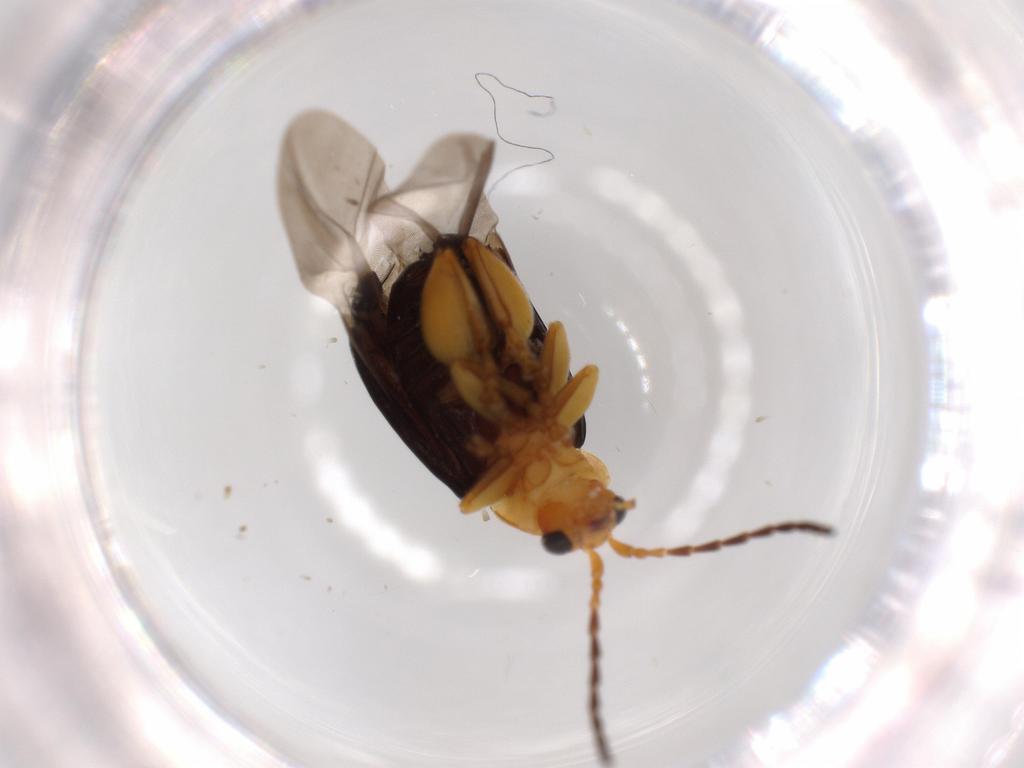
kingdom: Animalia
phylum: Arthropoda
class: Insecta
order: Coleoptera
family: Chrysomelidae
